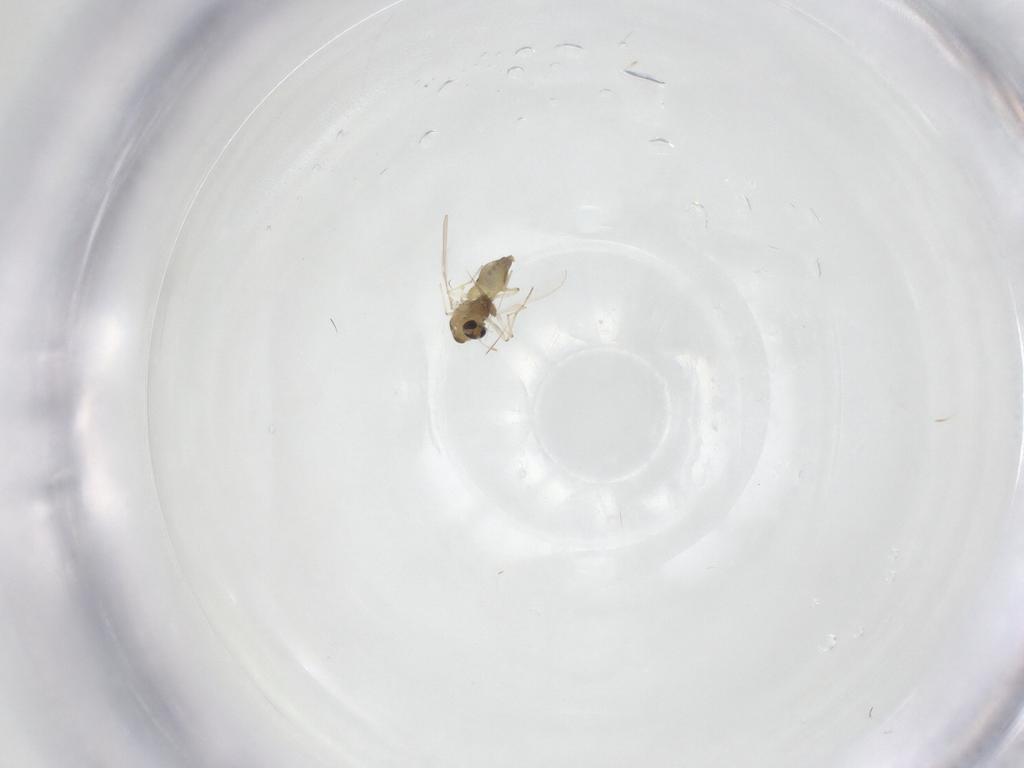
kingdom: Animalia
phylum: Arthropoda
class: Insecta
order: Diptera
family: Chironomidae
